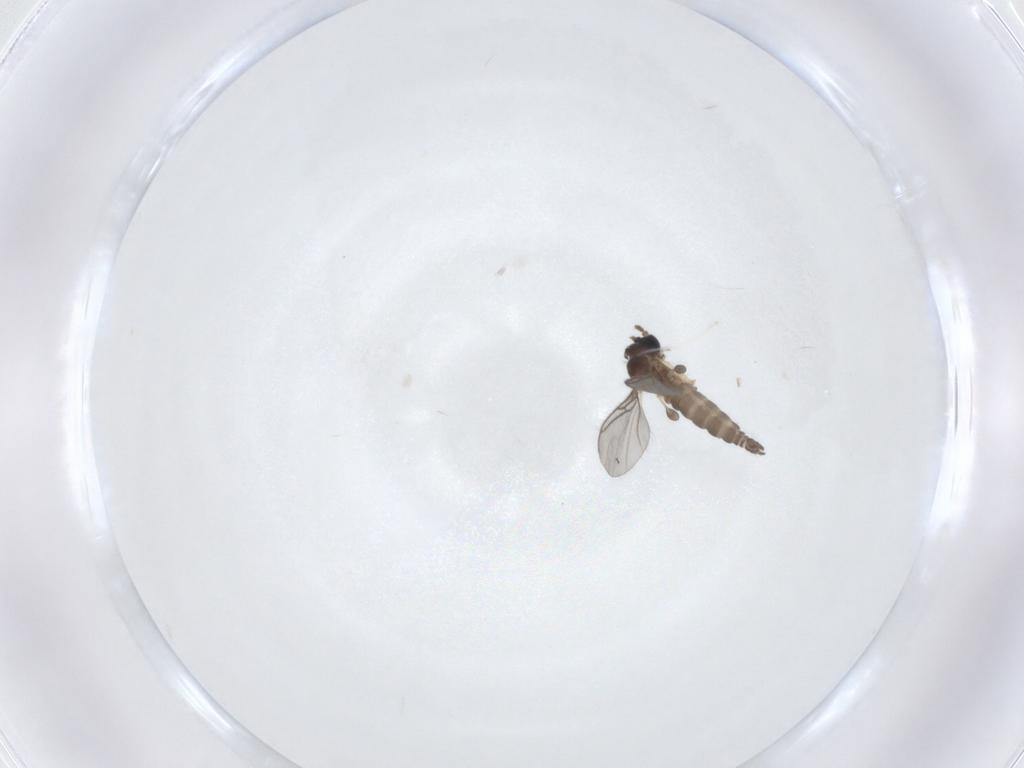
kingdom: Animalia
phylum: Arthropoda
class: Insecta
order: Diptera
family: Sciaridae
